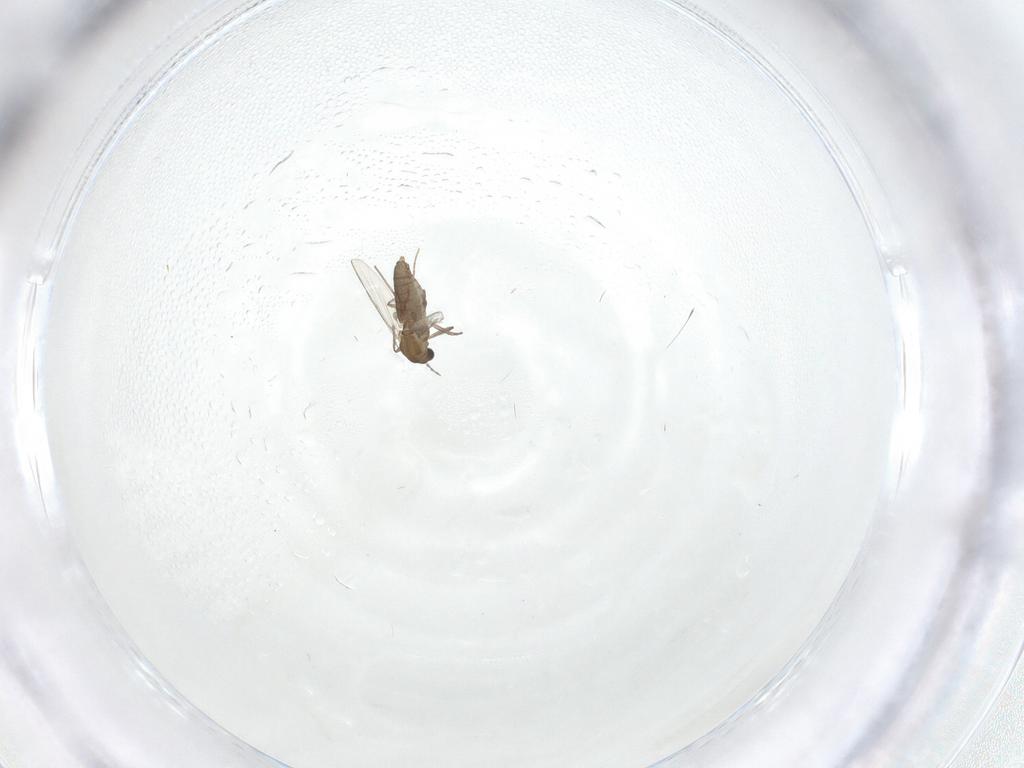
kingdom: Animalia
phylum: Arthropoda
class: Insecta
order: Diptera
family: Chironomidae
